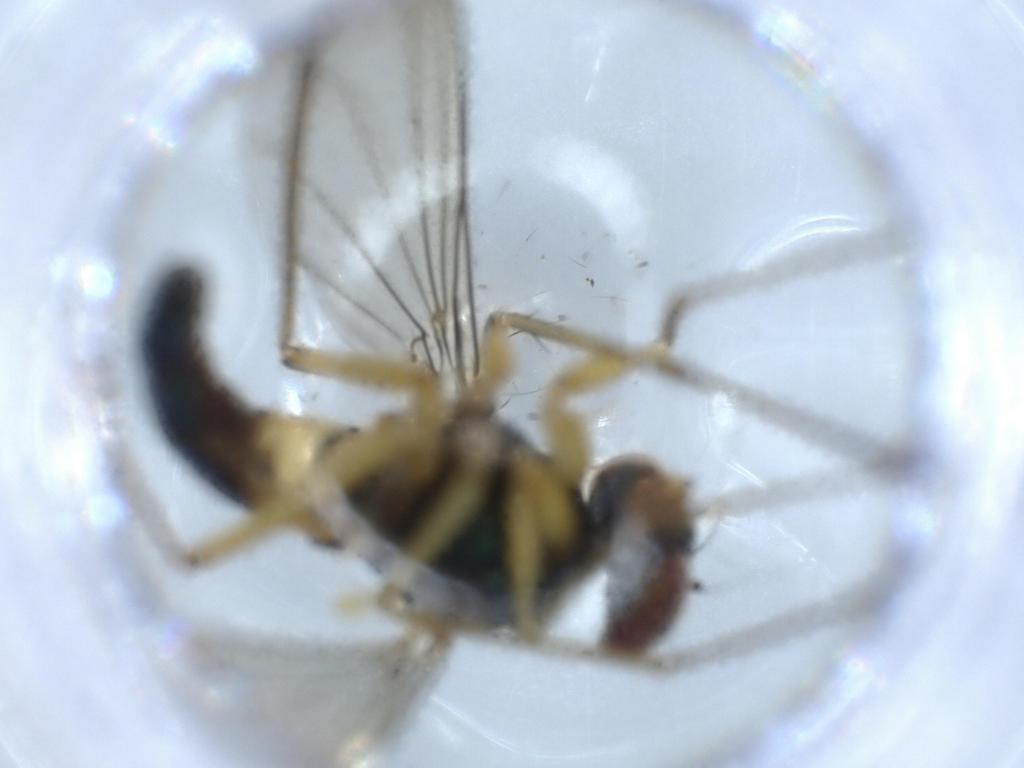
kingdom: Animalia
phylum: Arthropoda
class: Insecta
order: Diptera
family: Dolichopodidae
